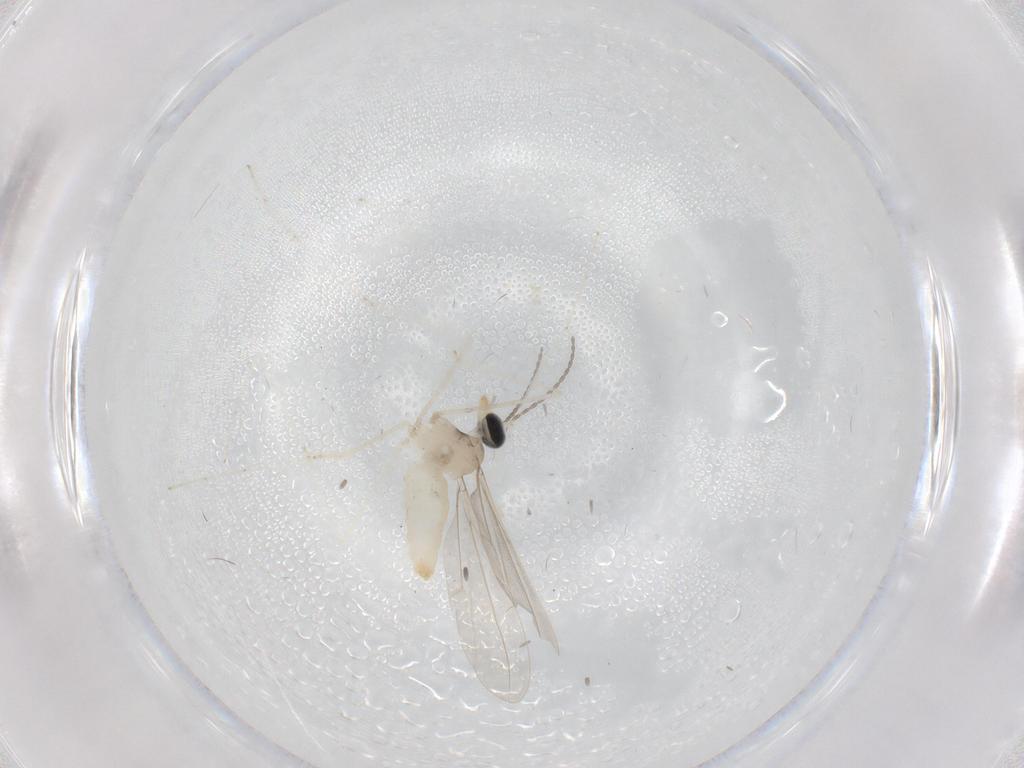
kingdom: Animalia
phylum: Arthropoda
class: Insecta
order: Diptera
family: Cecidomyiidae
